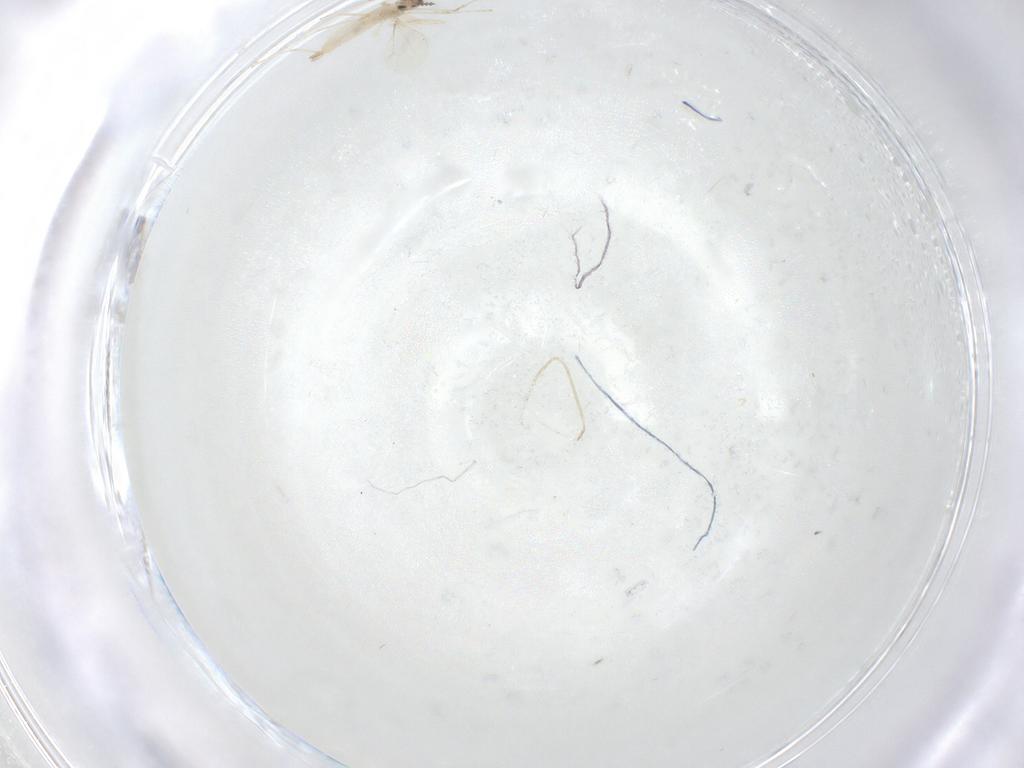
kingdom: Animalia
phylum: Arthropoda
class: Insecta
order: Diptera
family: Cecidomyiidae
